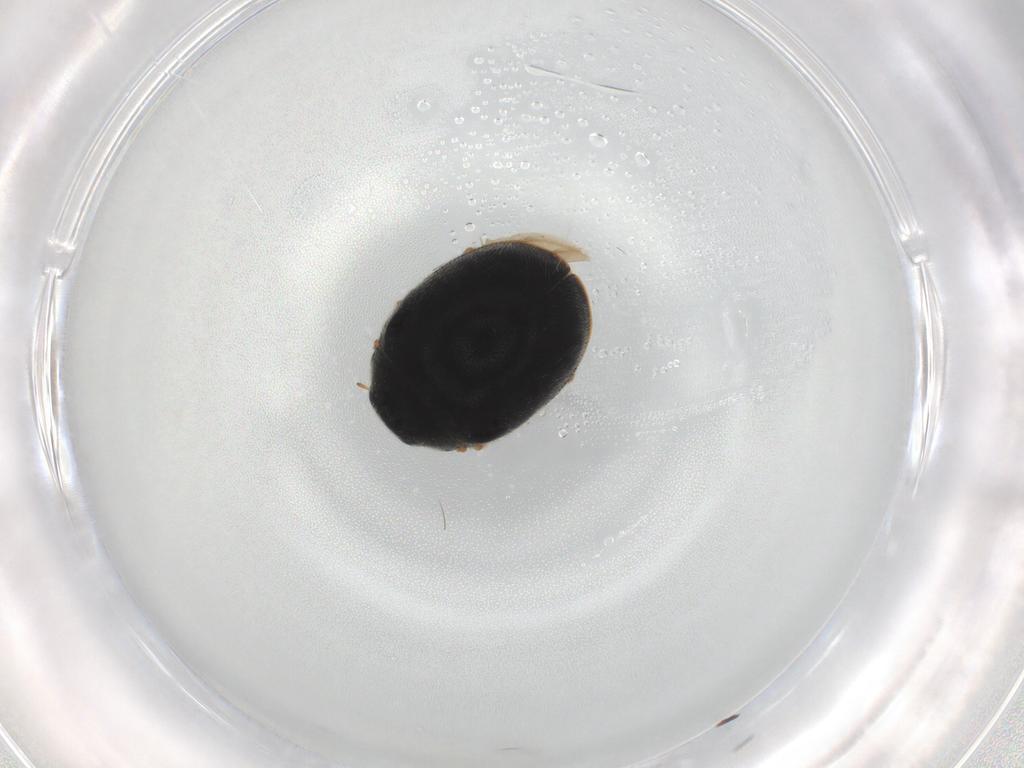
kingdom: Animalia
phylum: Arthropoda
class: Insecta
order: Coleoptera
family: Coccinellidae
